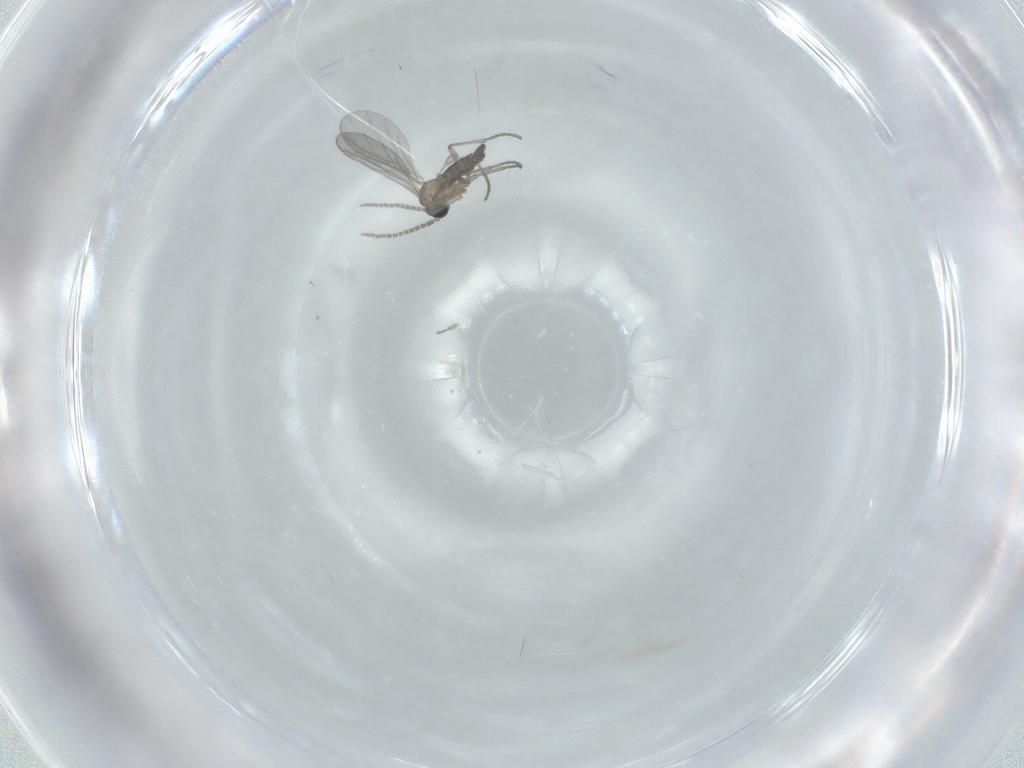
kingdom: Animalia
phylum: Arthropoda
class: Insecta
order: Diptera
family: Sciaridae
